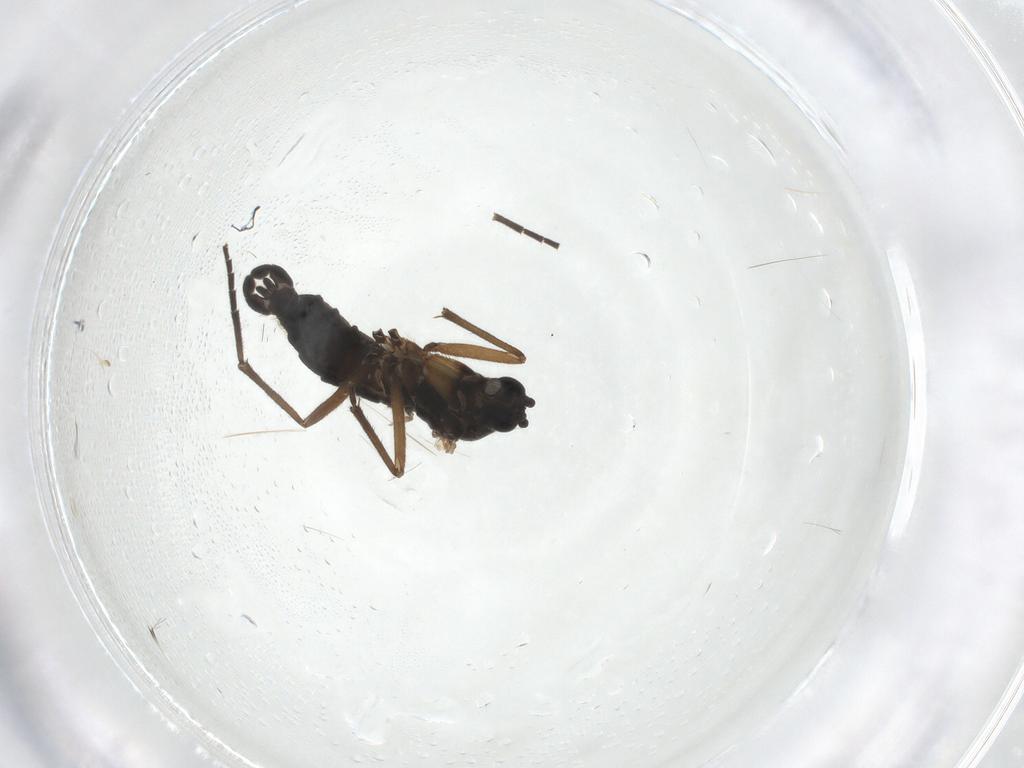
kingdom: Animalia
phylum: Arthropoda
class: Insecta
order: Diptera
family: Sciaridae
